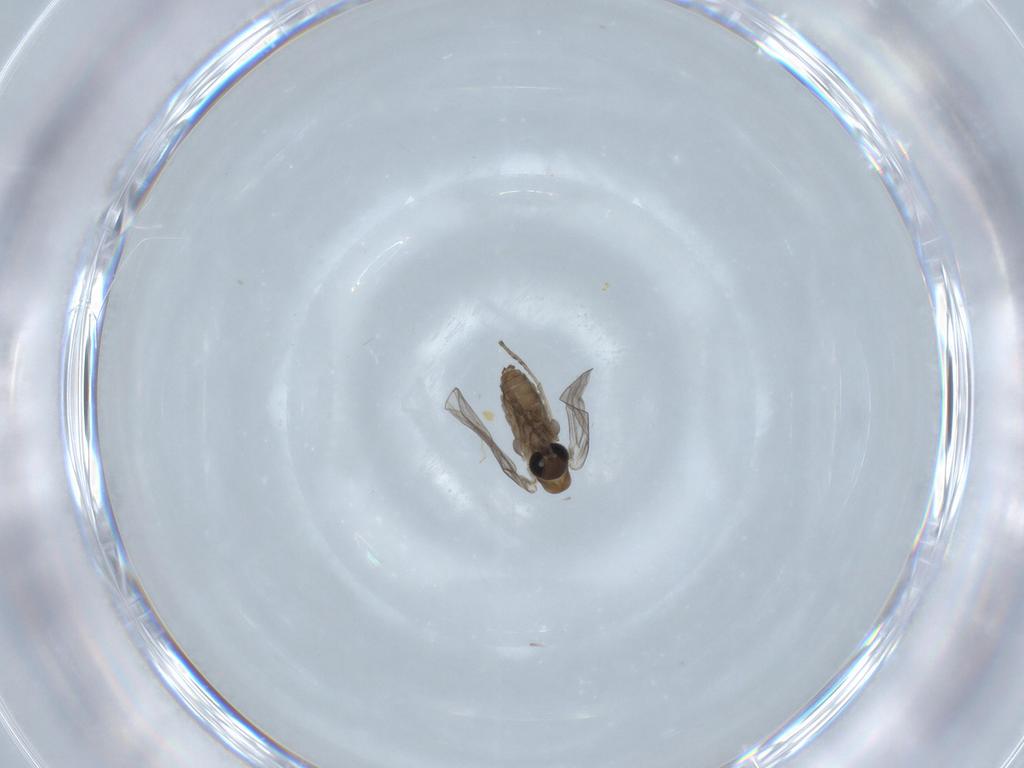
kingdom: Animalia
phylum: Arthropoda
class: Insecta
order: Diptera
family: Psychodidae
